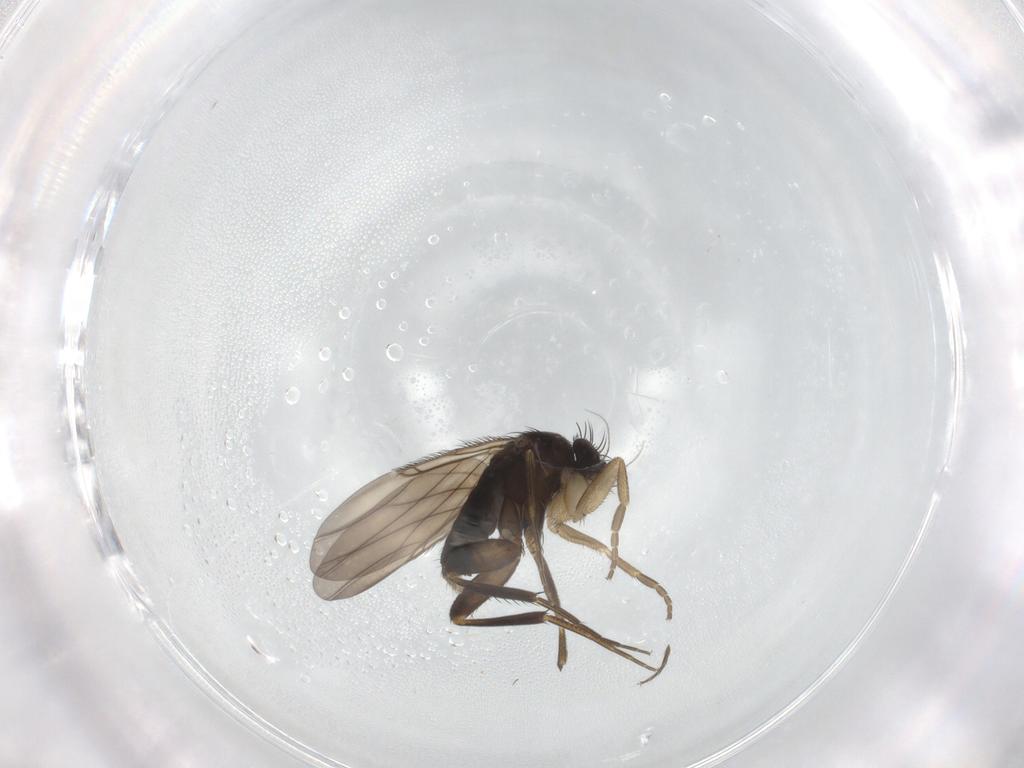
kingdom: Animalia
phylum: Arthropoda
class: Insecta
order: Diptera
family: Phoridae
